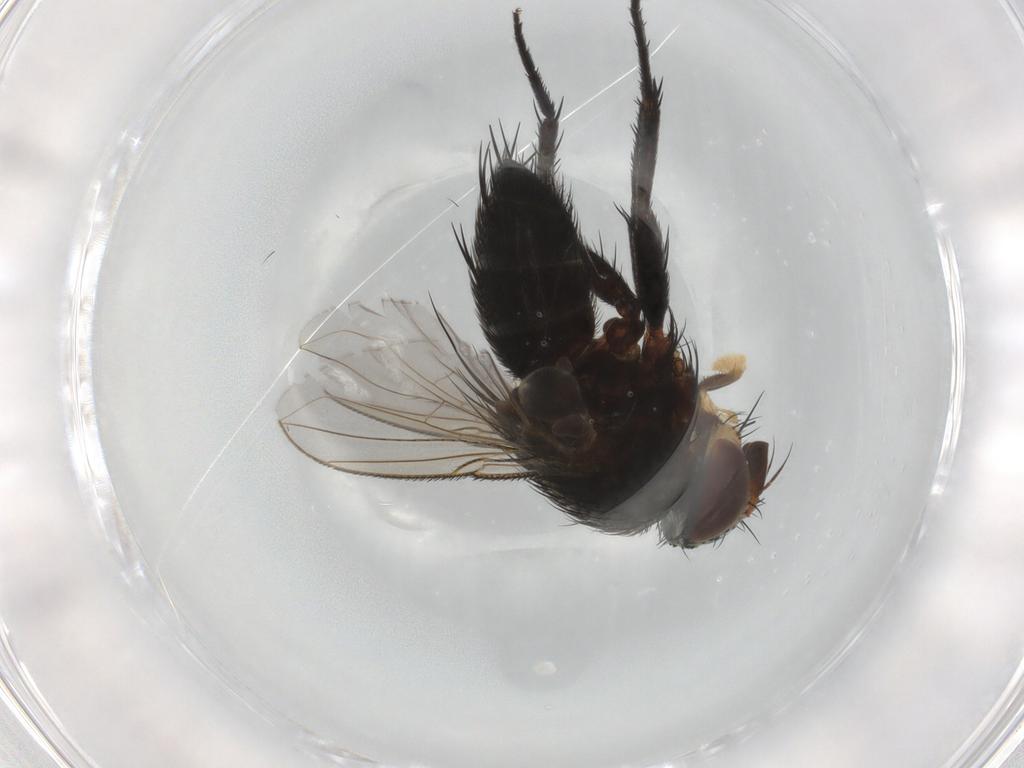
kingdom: Animalia
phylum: Arthropoda
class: Insecta
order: Diptera
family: Tachinidae
